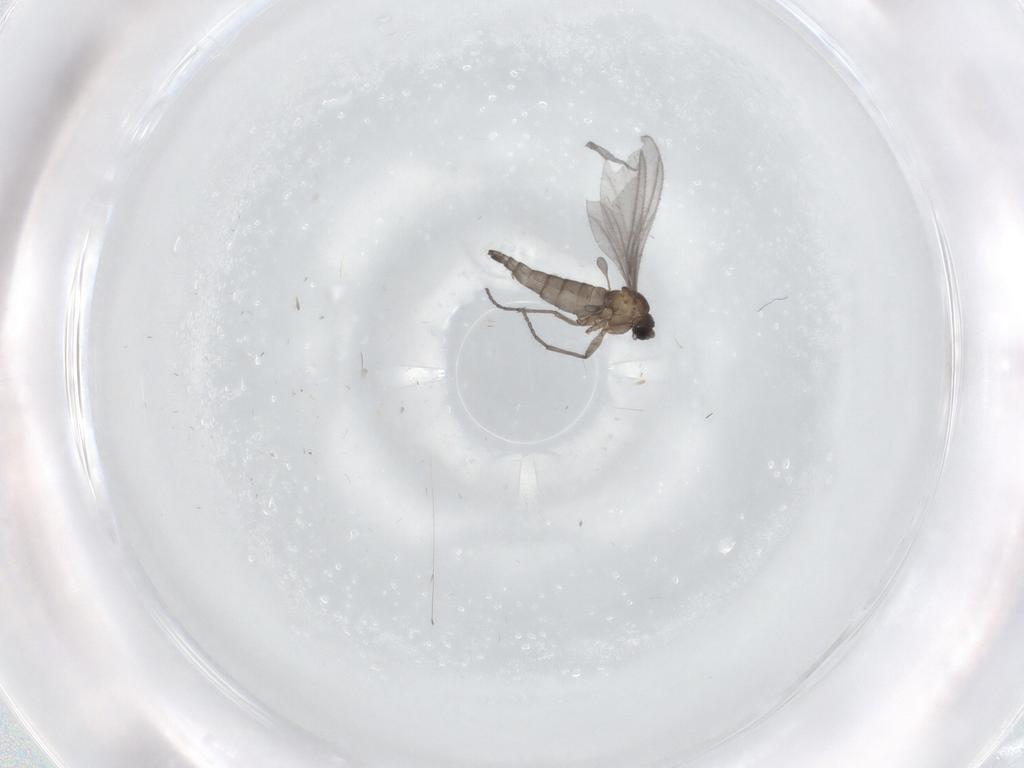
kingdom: Animalia
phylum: Arthropoda
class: Insecta
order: Diptera
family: Sciaridae
